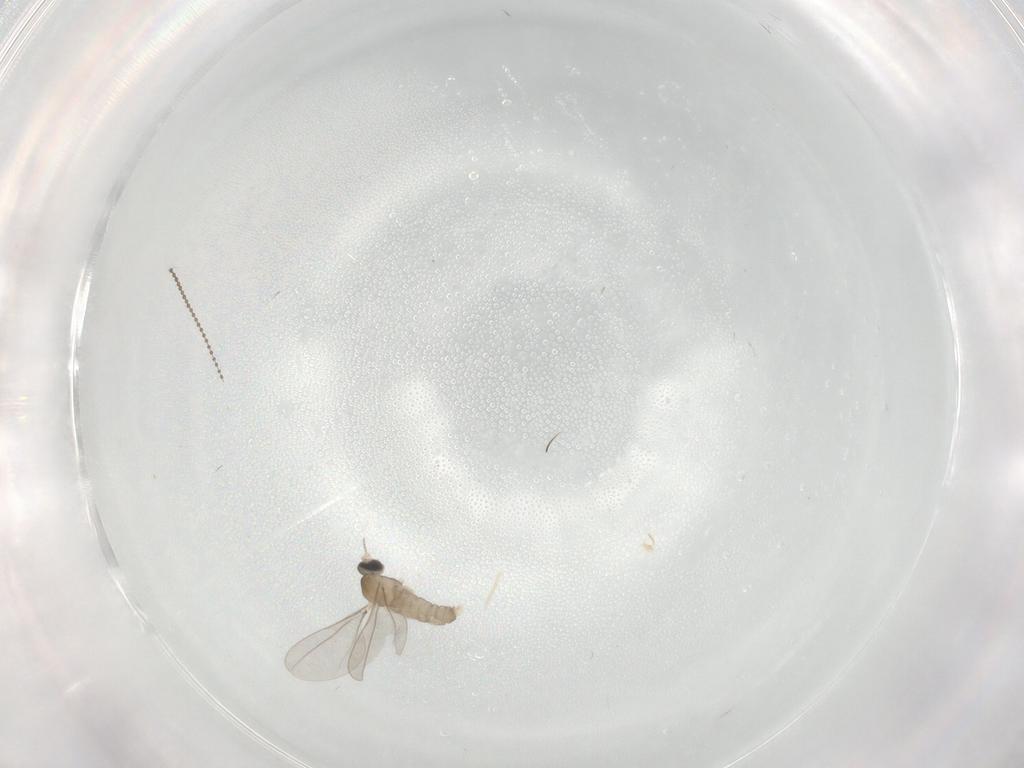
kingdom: Animalia
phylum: Arthropoda
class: Insecta
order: Diptera
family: Cecidomyiidae
